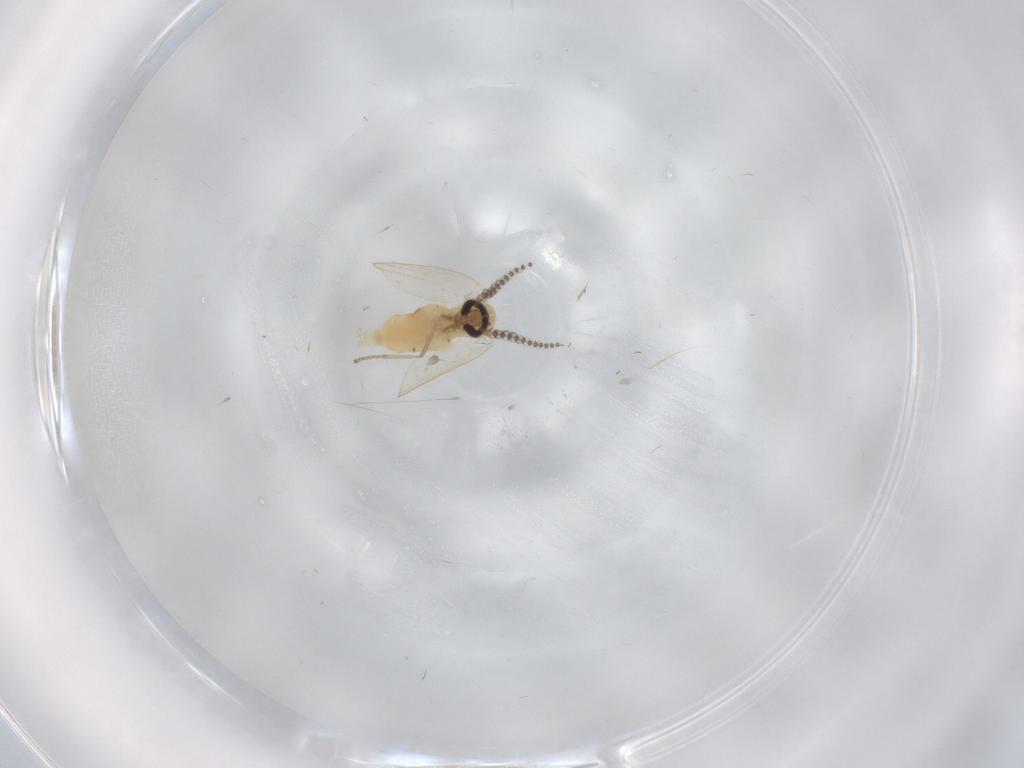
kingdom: Animalia
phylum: Arthropoda
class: Insecta
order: Diptera
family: Psychodidae
